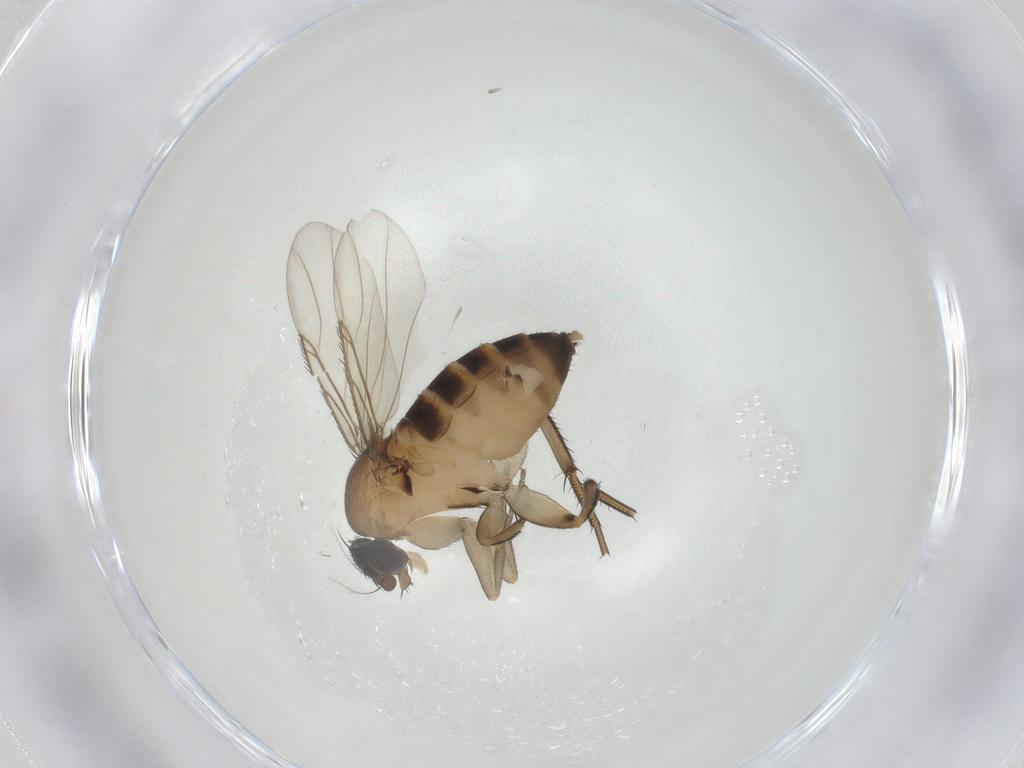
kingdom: Animalia
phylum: Arthropoda
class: Insecta
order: Diptera
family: Phoridae
